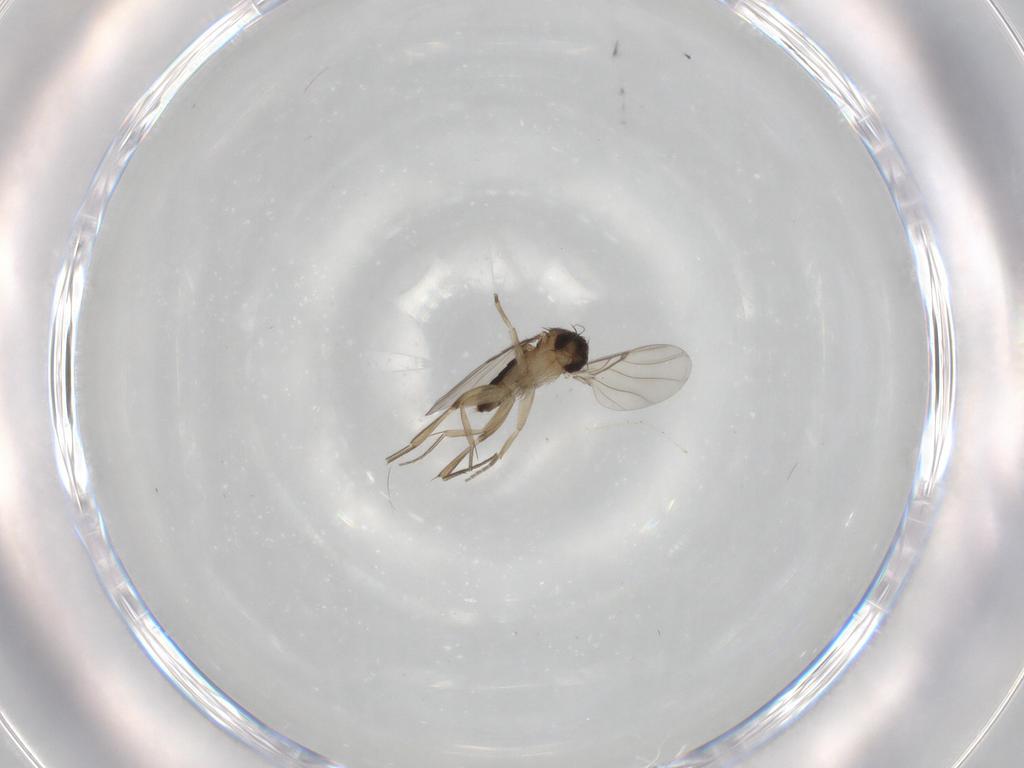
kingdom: Animalia
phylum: Arthropoda
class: Insecta
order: Diptera
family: Phoridae
